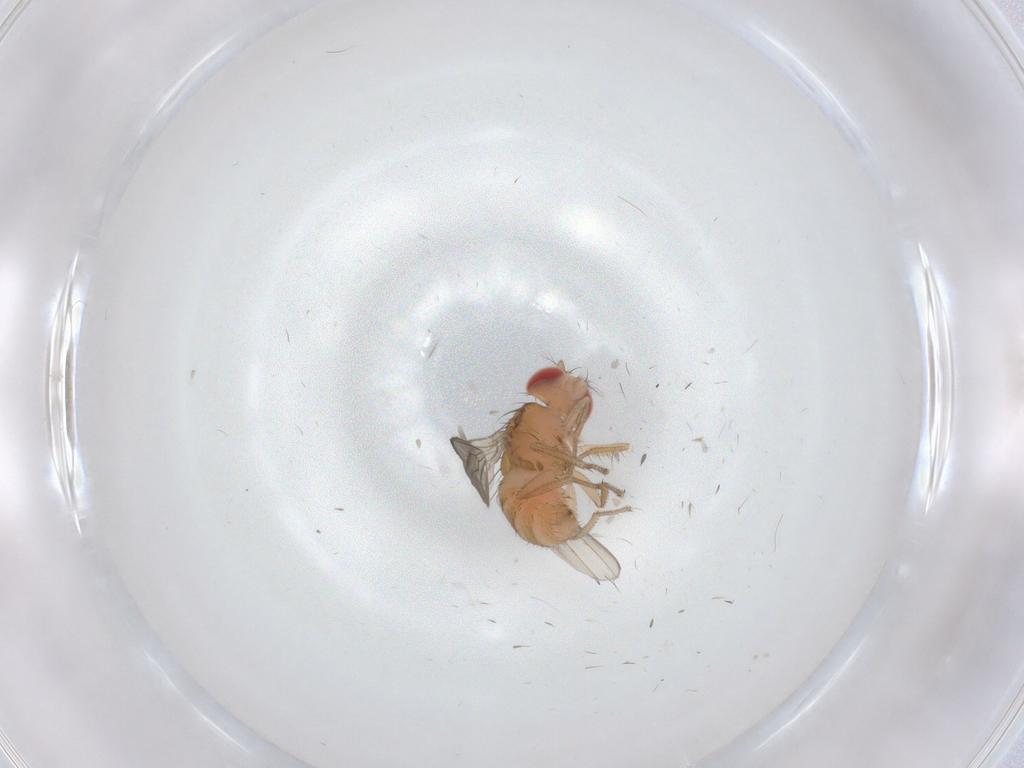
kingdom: Animalia
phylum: Arthropoda
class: Insecta
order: Diptera
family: Drosophilidae
